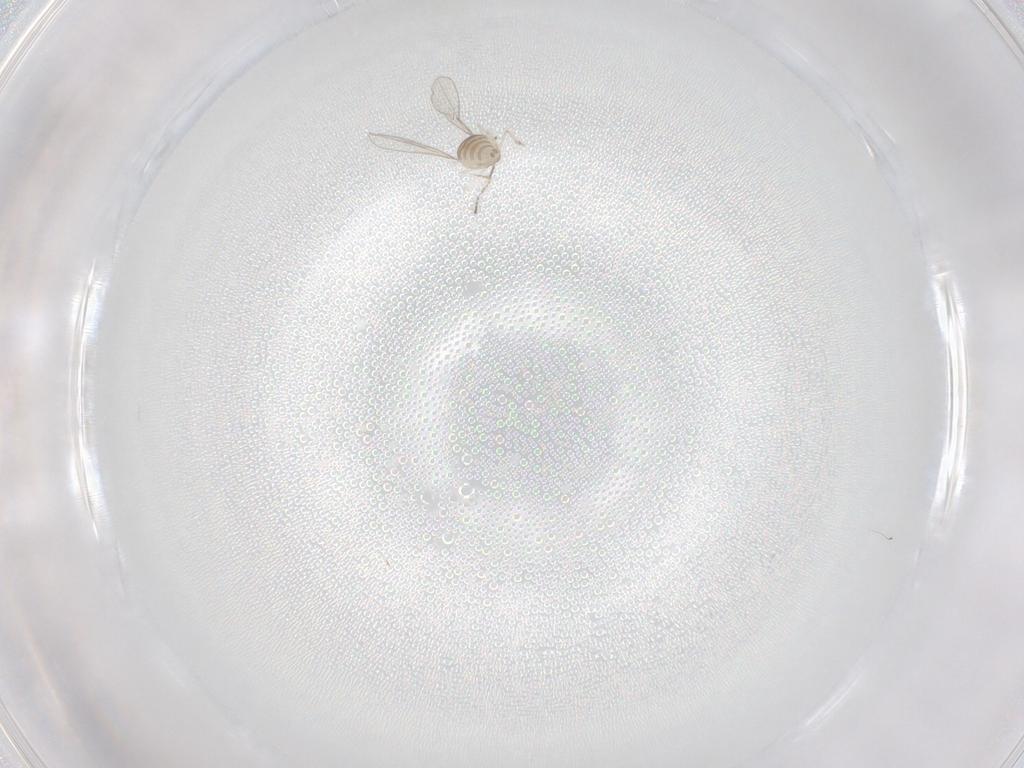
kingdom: Animalia
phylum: Arthropoda
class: Insecta
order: Diptera
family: Cecidomyiidae
